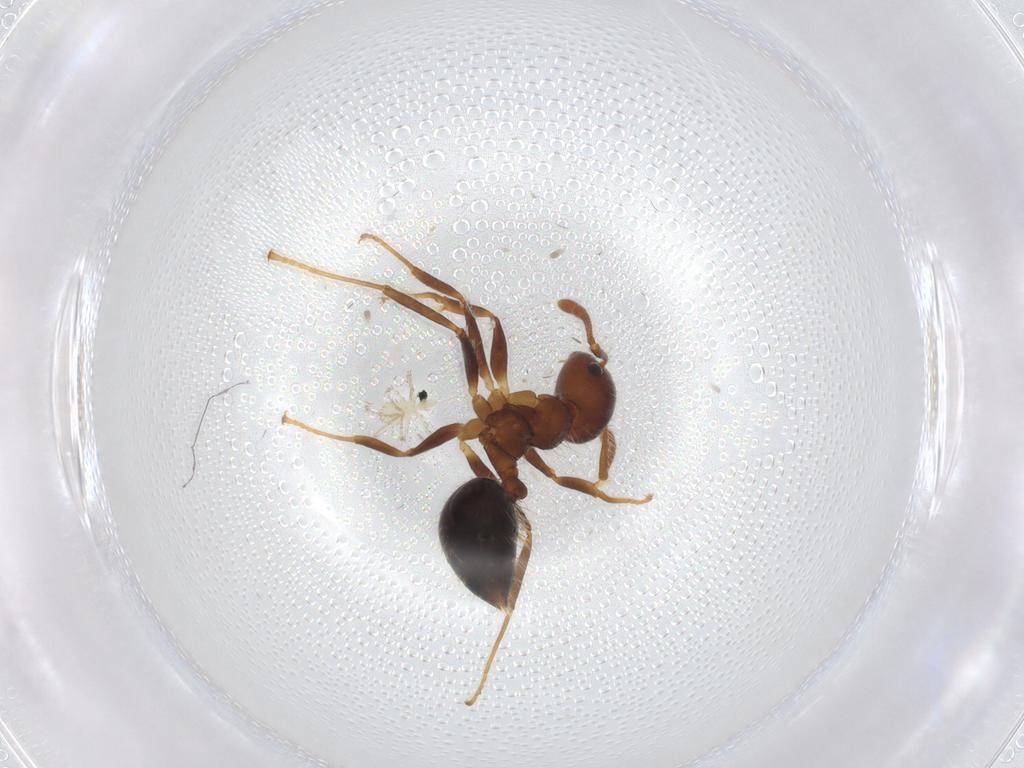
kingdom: Animalia
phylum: Arthropoda
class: Insecta
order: Hymenoptera
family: Formicidae
